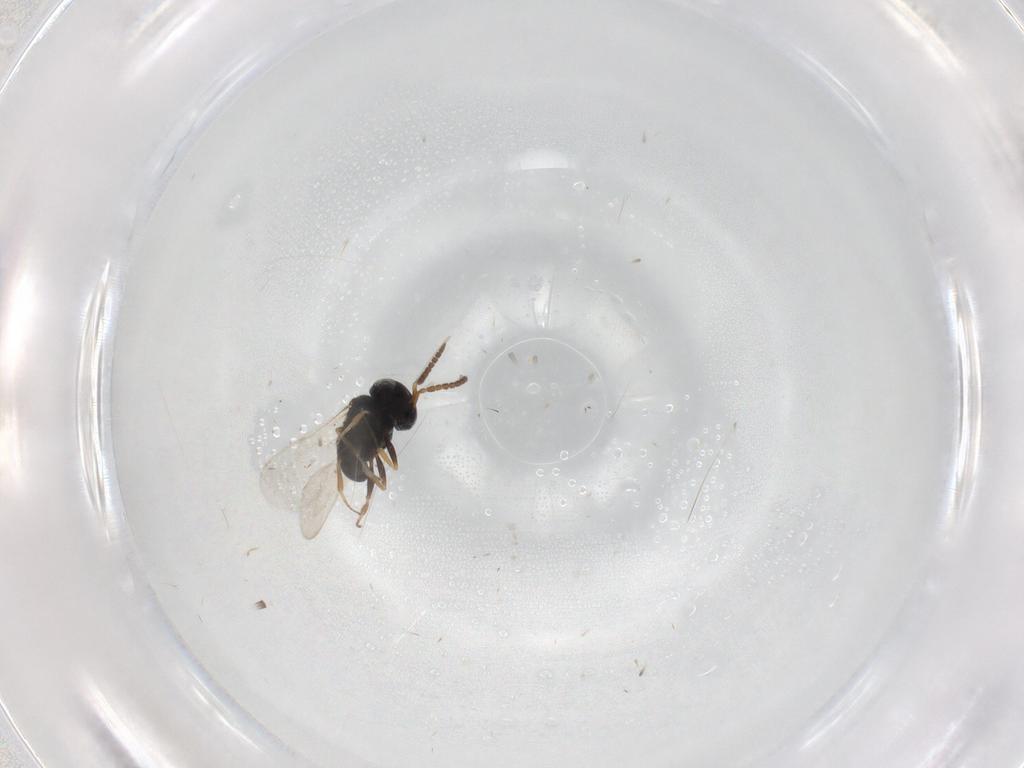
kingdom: Animalia
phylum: Arthropoda
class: Insecta
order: Coleoptera
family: Curculionidae
